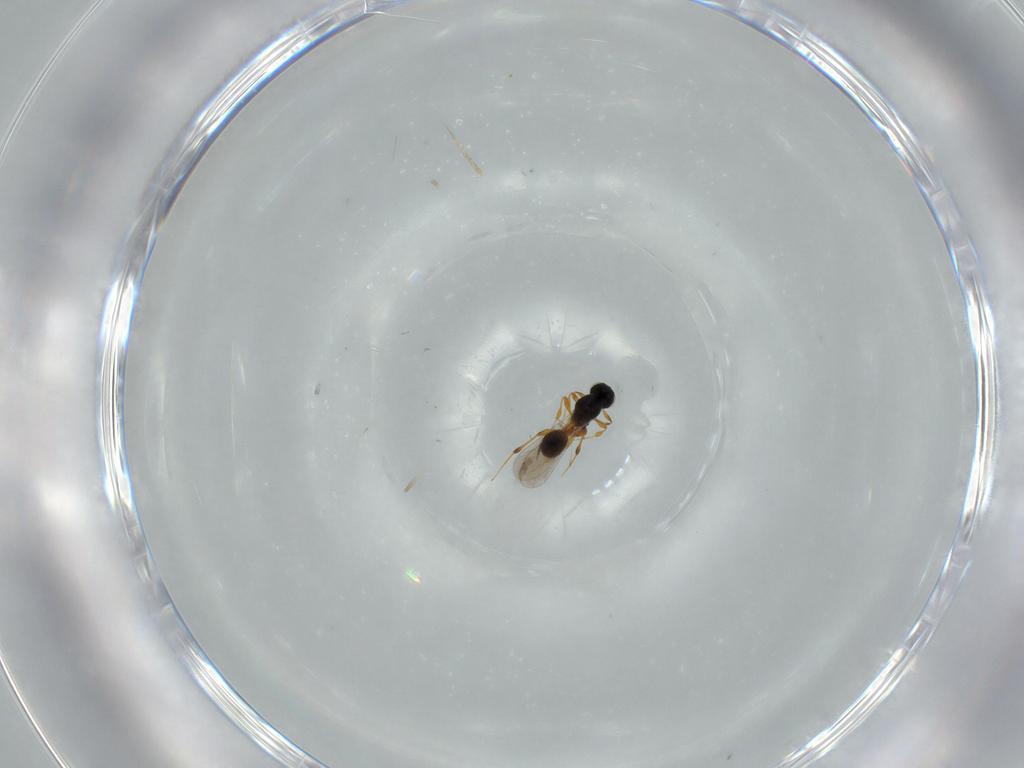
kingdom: Animalia
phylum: Arthropoda
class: Insecta
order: Hymenoptera
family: Platygastridae
